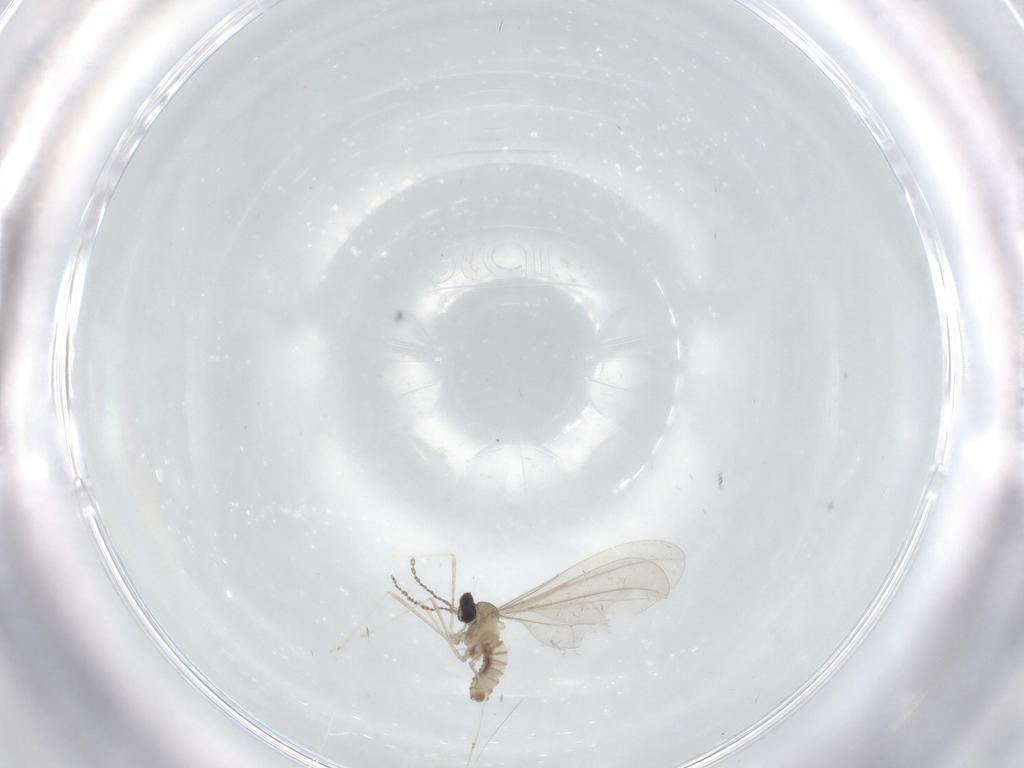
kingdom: Animalia
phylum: Arthropoda
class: Insecta
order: Diptera
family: Cecidomyiidae
